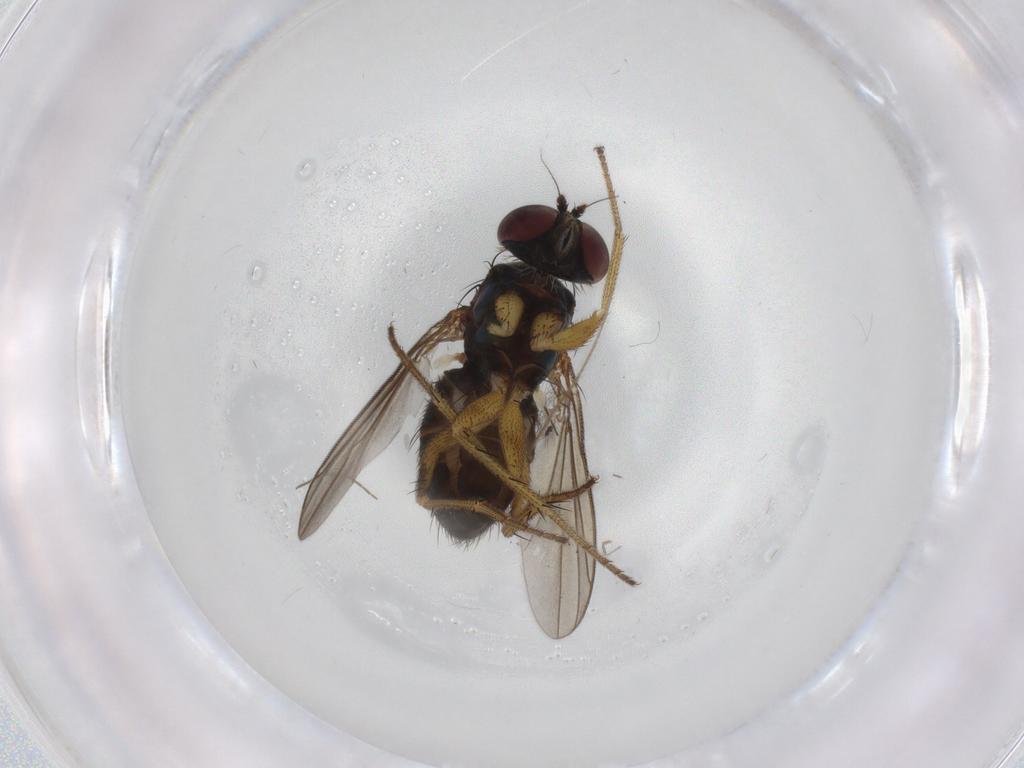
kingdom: Animalia
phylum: Arthropoda
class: Insecta
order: Diptera
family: Dolichopodidae
